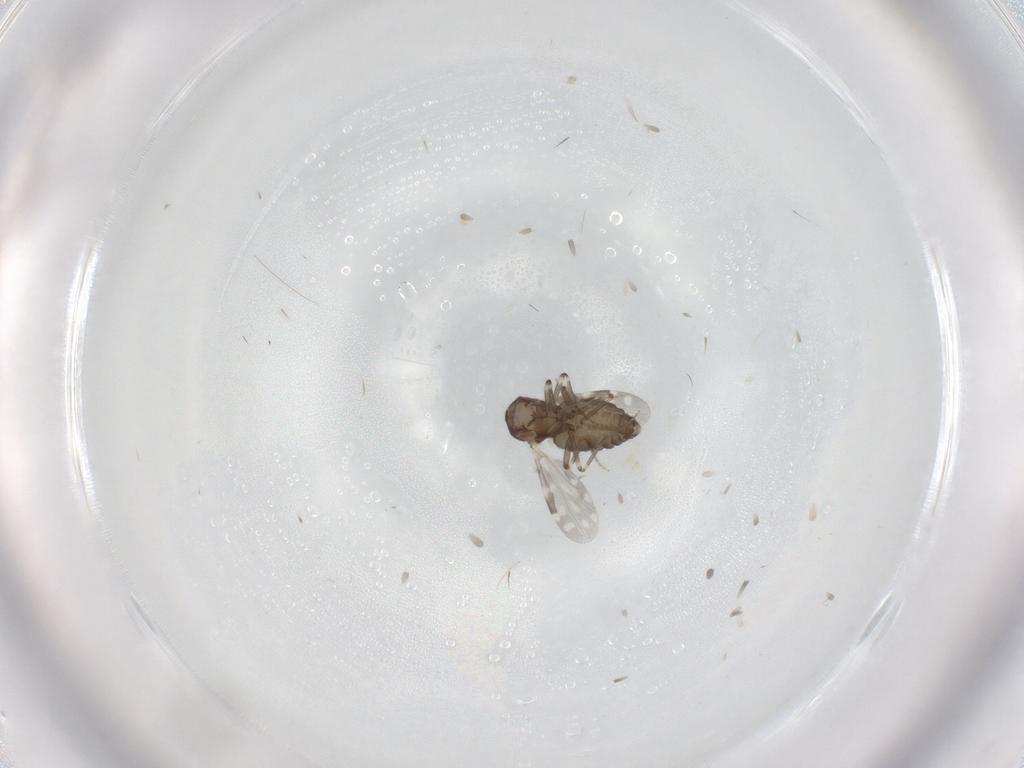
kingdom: Animalia
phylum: Arthropoda
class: Insecta
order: Diptera
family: Ceratopogonidae
